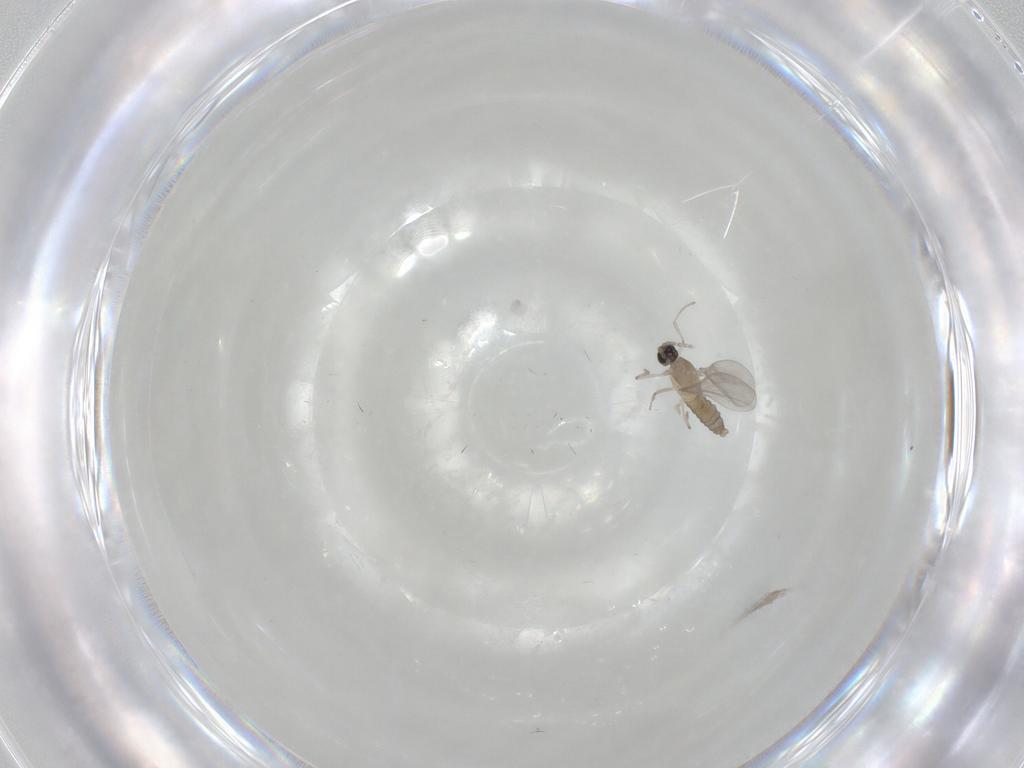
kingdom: Animalia
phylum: Arthropoda
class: Insecta
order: Diptera
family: Cecidomyiidae
